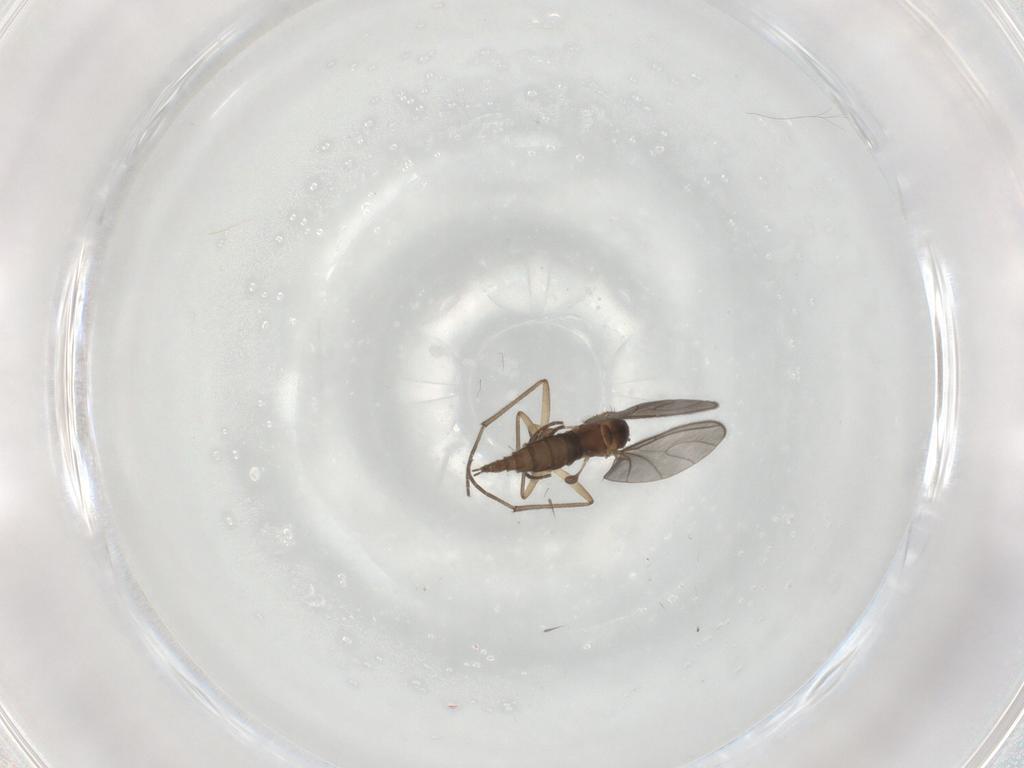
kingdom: Animalia
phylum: Arthropoda
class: Insecta
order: Diptera
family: Sciaridae
